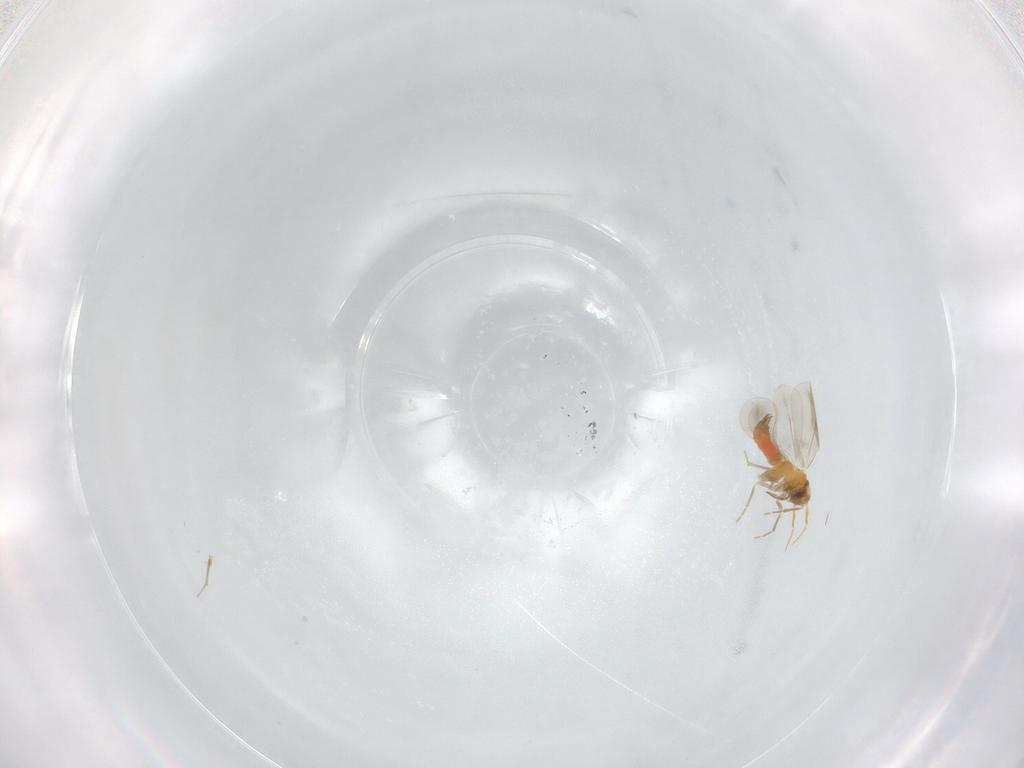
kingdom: Animalia
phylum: Arthropoda
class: Insecta
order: Hemiptera
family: Aleyrodidae
